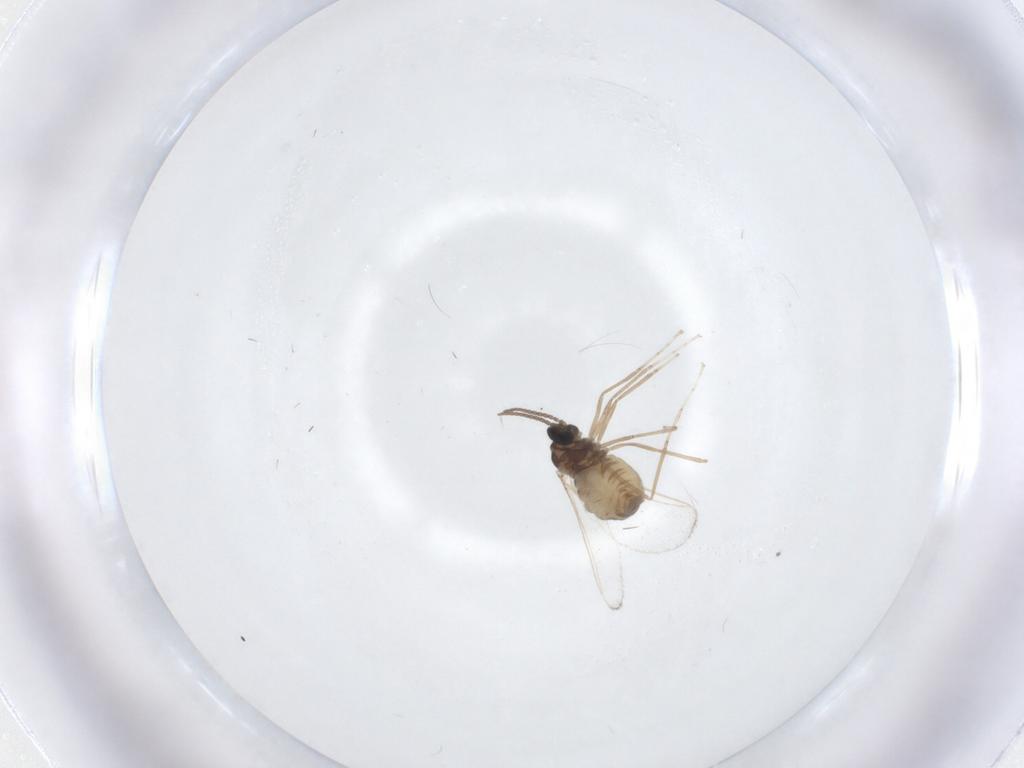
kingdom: Animalia
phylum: Arthropoda
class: Insecta
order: Diptera
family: Cecidomyiidae
